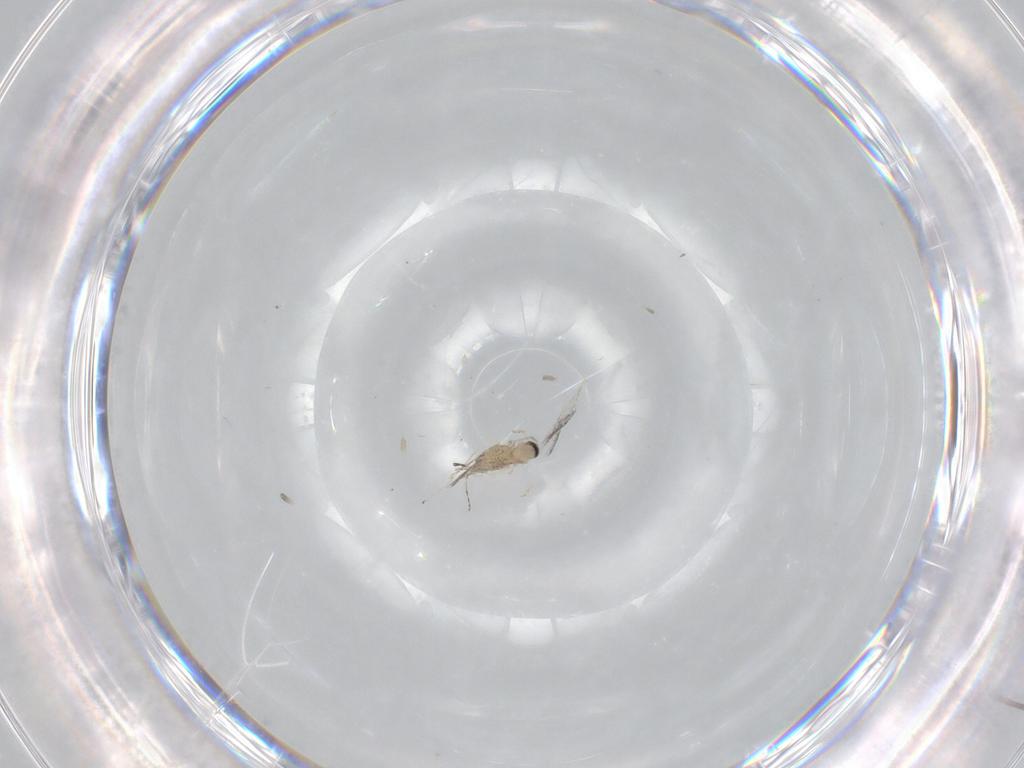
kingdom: Animalia
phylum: Arthropoda
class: Insecta
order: Diptera
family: Cecidomyiidae
